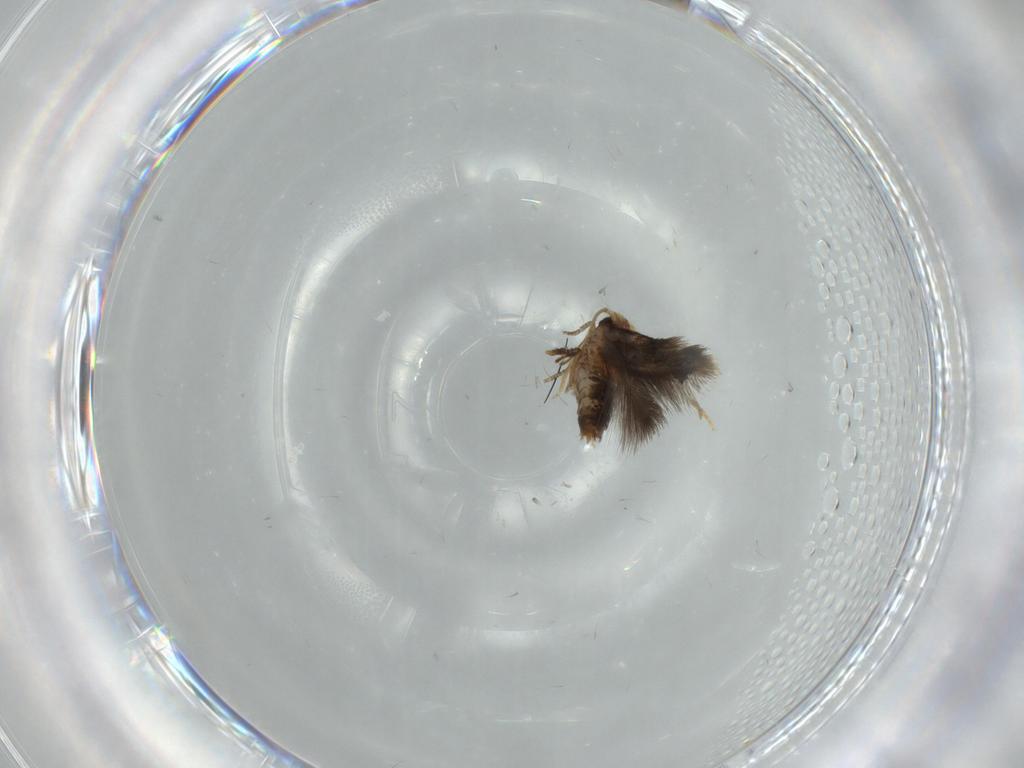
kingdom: Animalia
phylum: Arthropoda
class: Insecta
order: Lepidoptera
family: Nepticulidae
